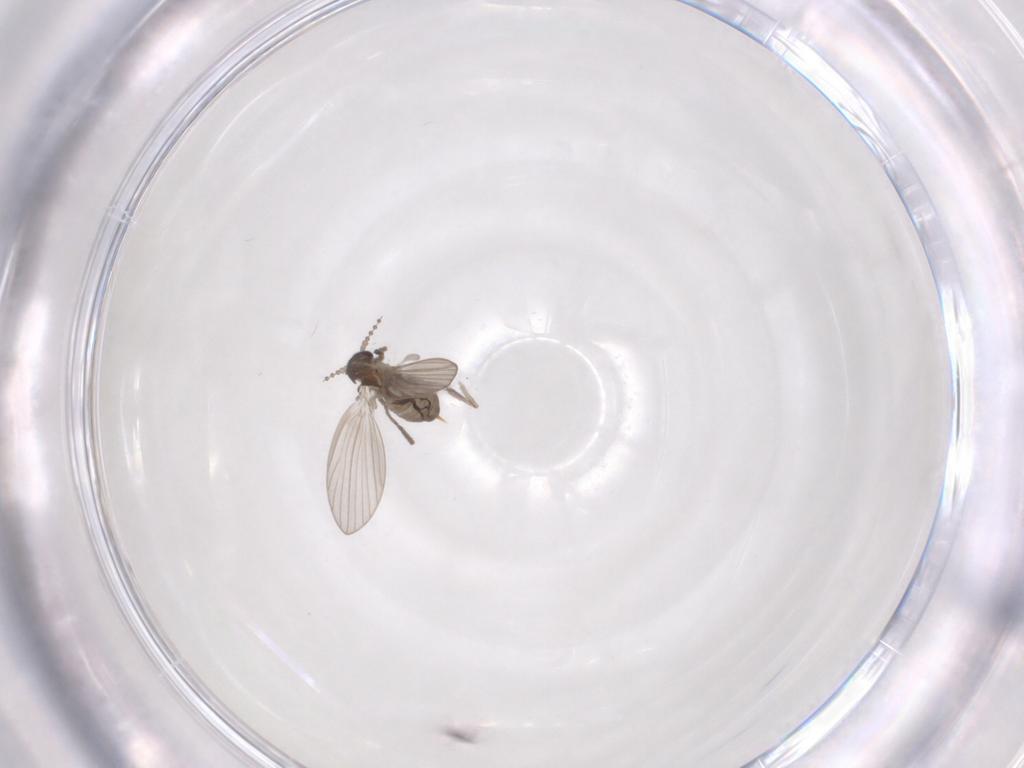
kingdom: Animalia
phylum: Arthropoda
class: Insecta
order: Diptera
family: Psychodidae
